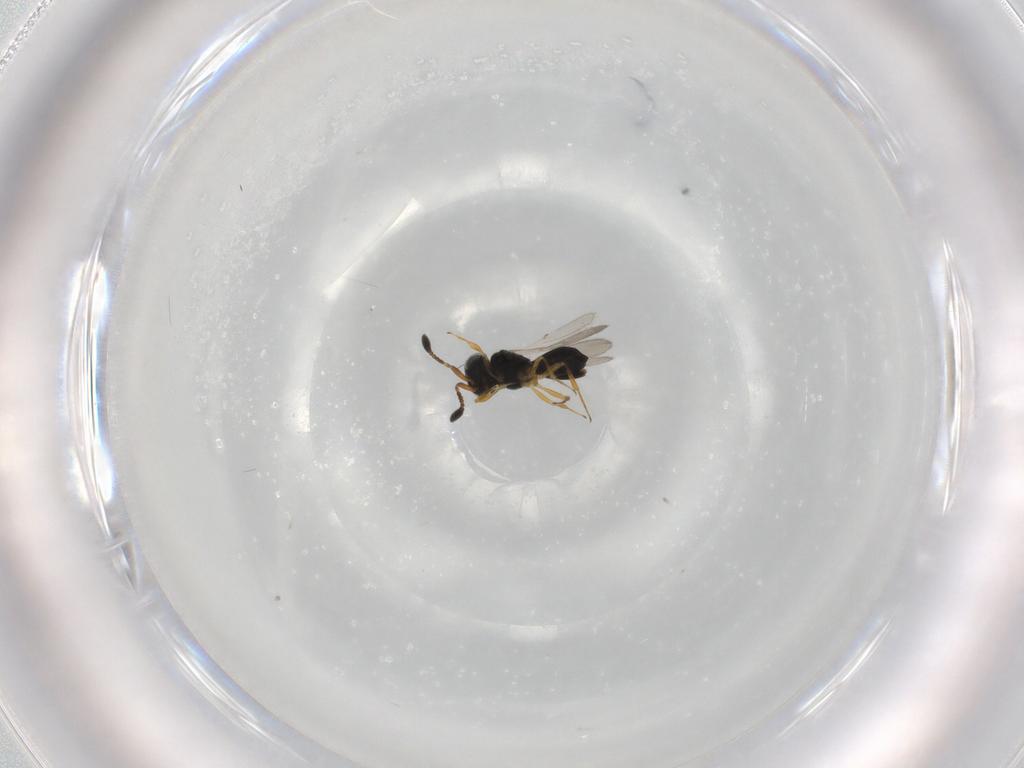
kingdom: Animalia
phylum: Arthropoda
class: Insecta
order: Hymenoptera
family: Scelionidae
